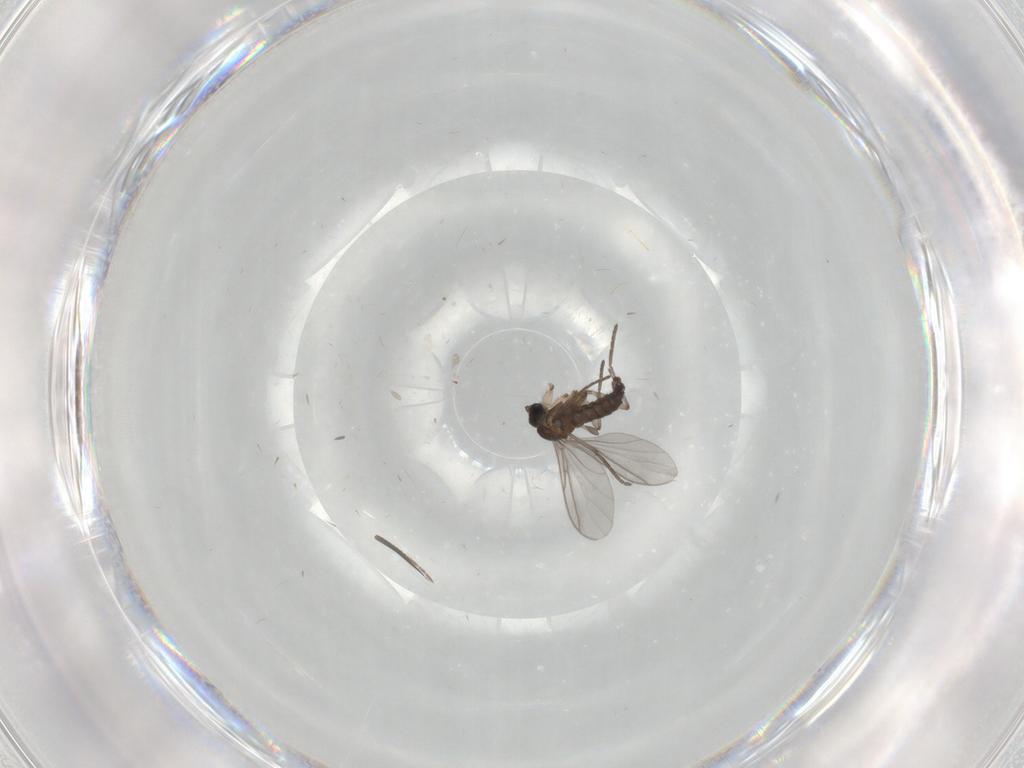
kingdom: Animalia
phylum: Arthropoda
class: Insecta
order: Diptera
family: Ceratopogonidae
